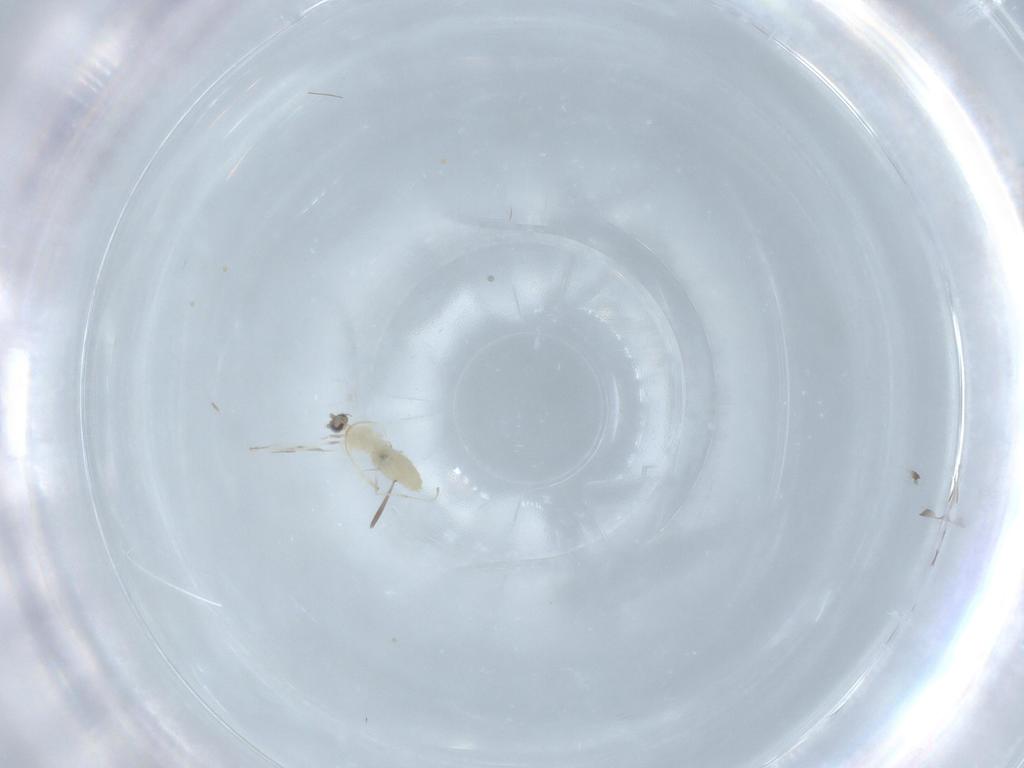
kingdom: Animalia
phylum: Arthropoda
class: Insecta
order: Diptera
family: Cecidomyiidae
